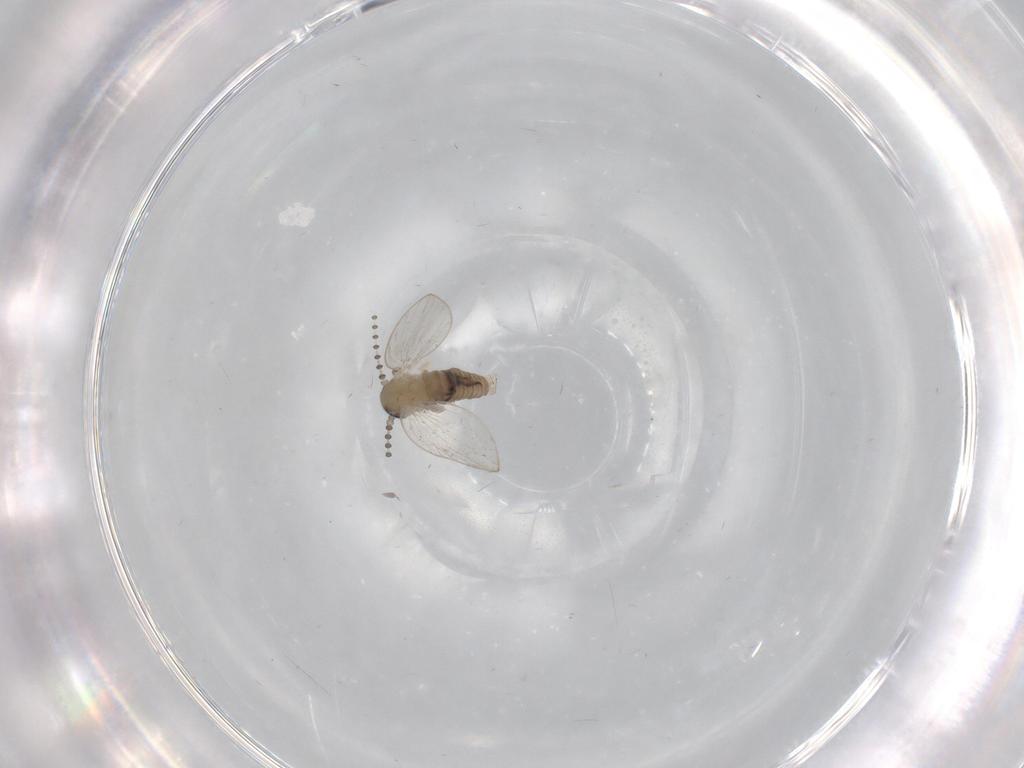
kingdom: Animalia
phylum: Arthropoda
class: Insecta
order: Diptera
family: Psychodidae
